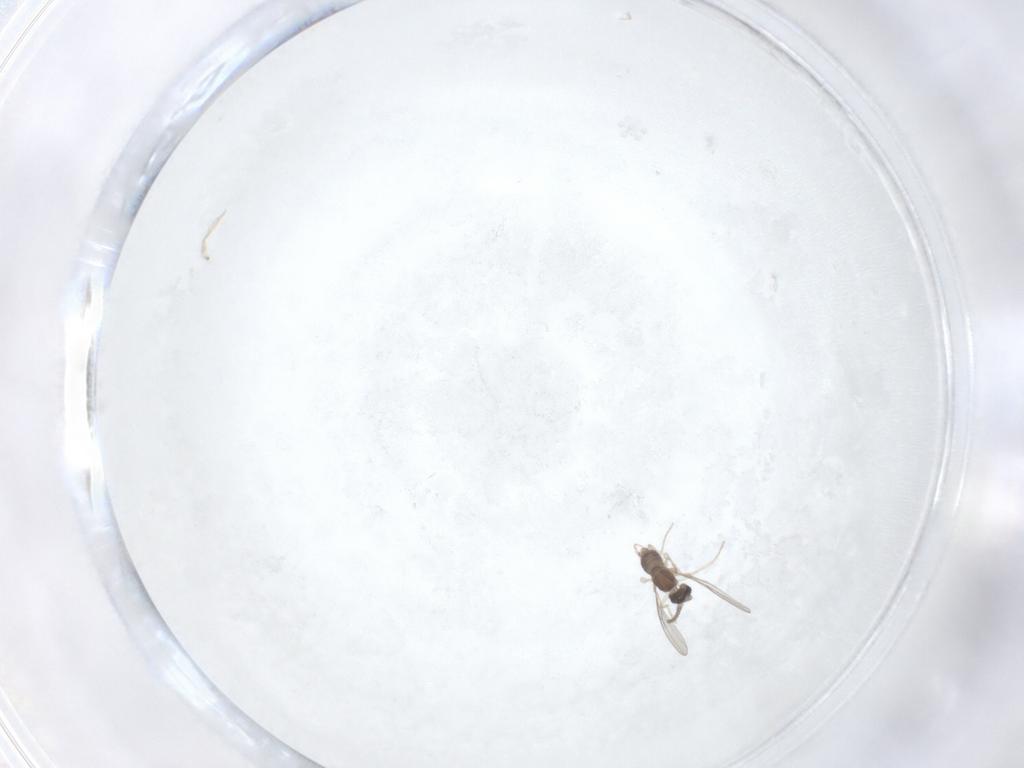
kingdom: Animalia
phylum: Arthropoda
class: Insecta
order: Diptera
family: Cecidomyiidae
